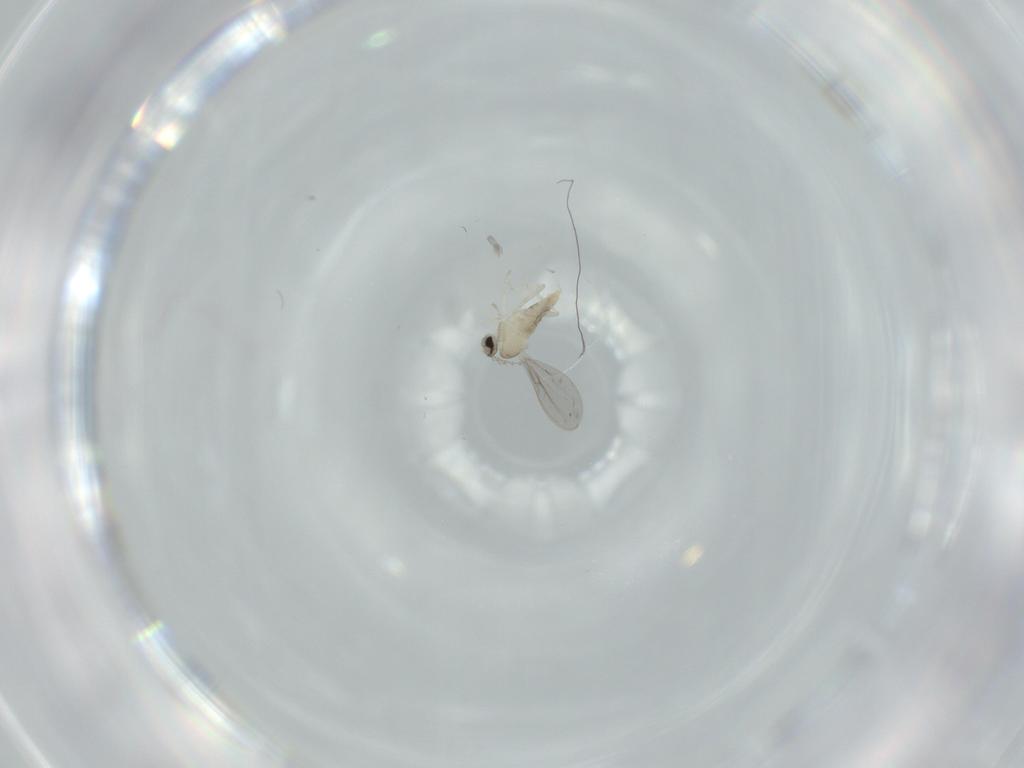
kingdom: Animalia
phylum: Arthropoda
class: Insecta
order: Diptera
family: Cecidomyiidae
